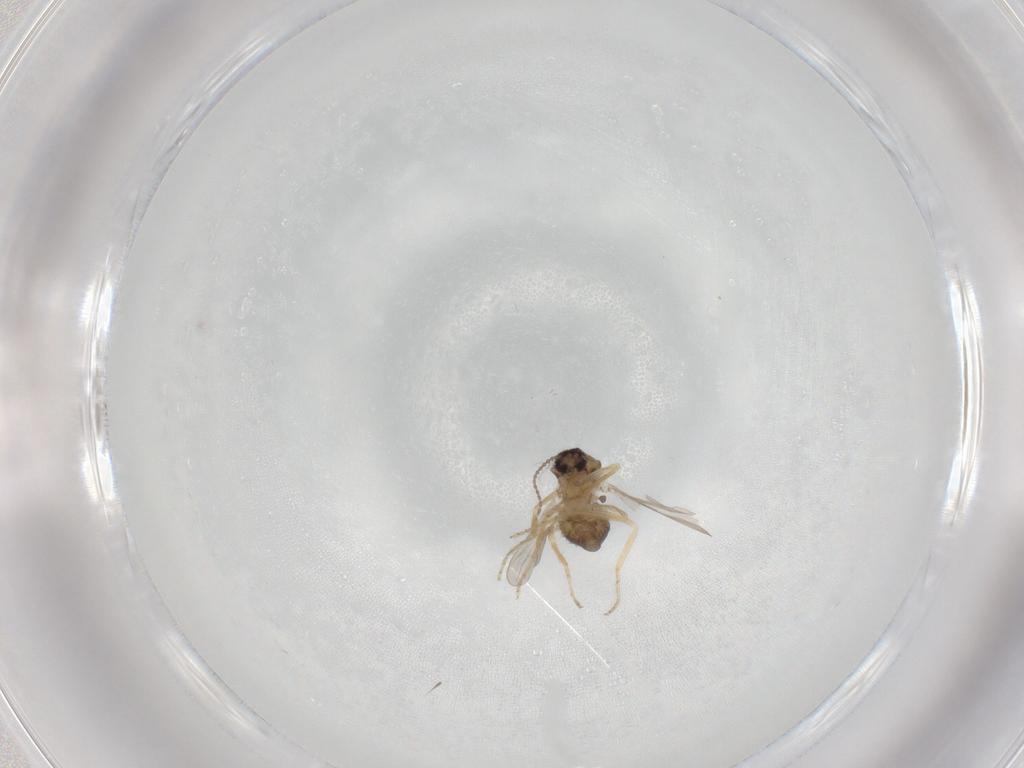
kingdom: Animalia
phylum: Arthropoda
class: Insecta
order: Diptera
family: Ceratopogonidae
